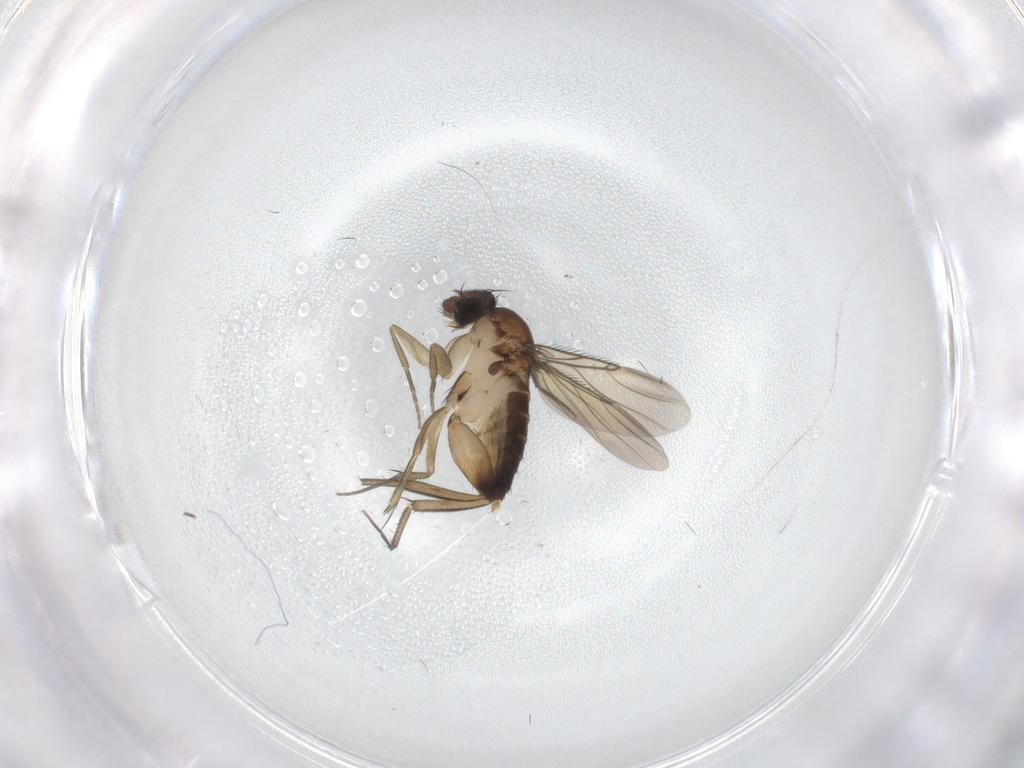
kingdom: Animalia
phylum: Arthropoda
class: Insecta
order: Diptera
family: Phoridae
